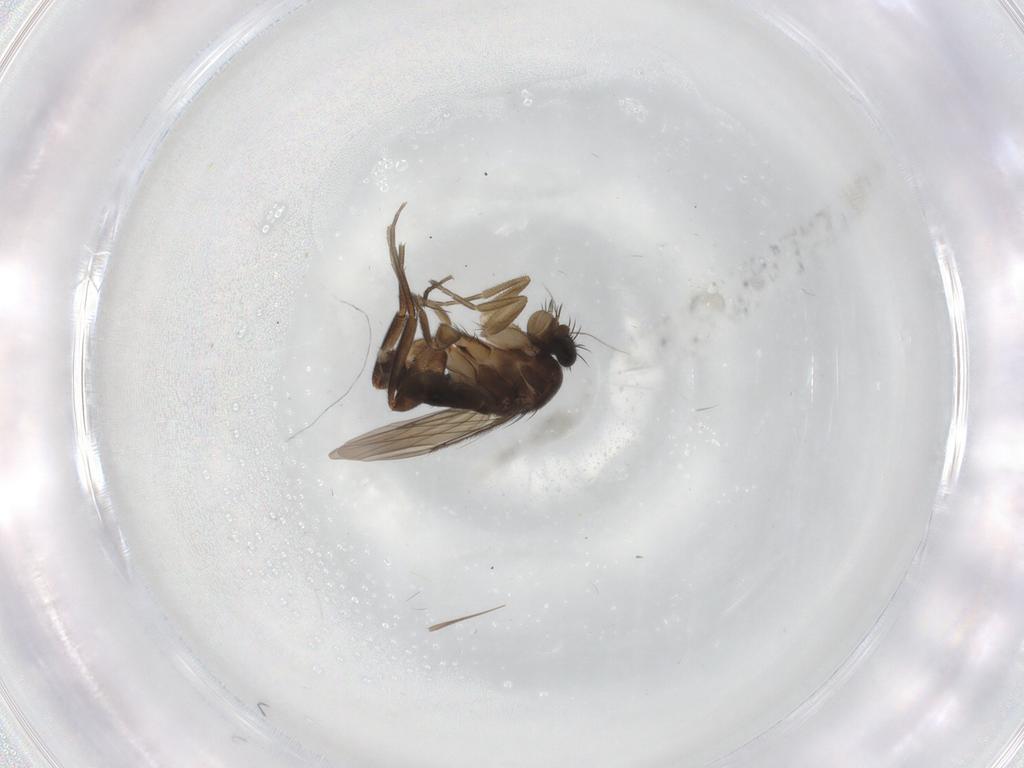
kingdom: Animalia
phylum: Arthropoda
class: Insecta
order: Diptera
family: Phoridae
